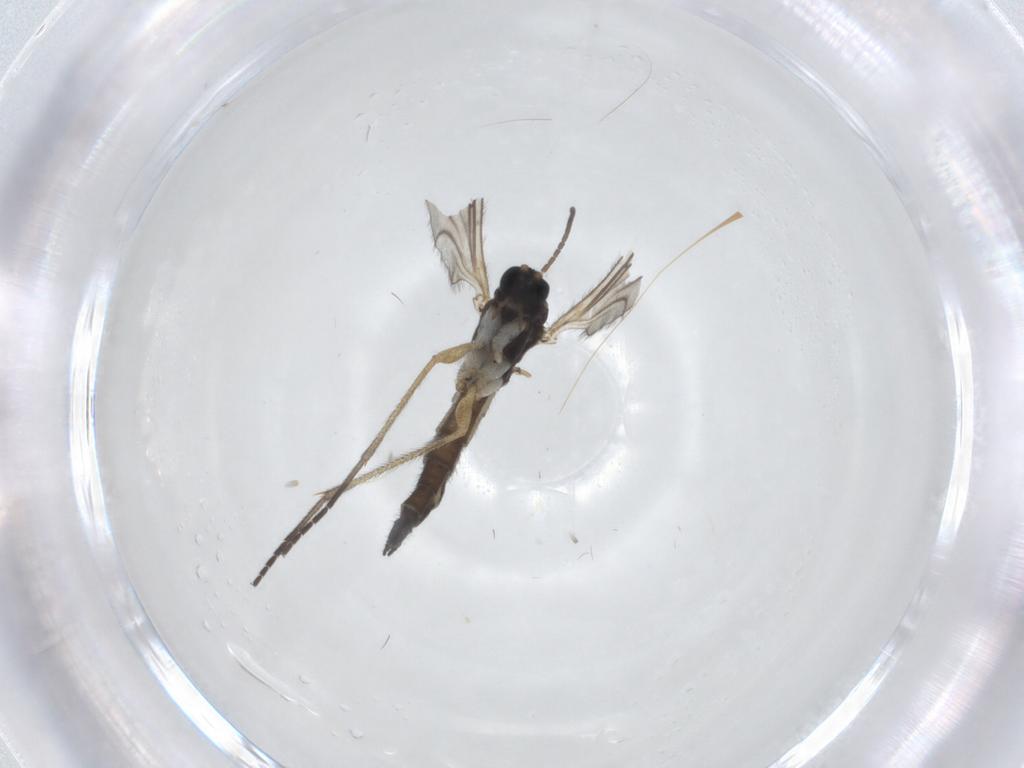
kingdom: Animalia
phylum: Arthropoda
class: Insecta
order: Diptera
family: Sciaridae
